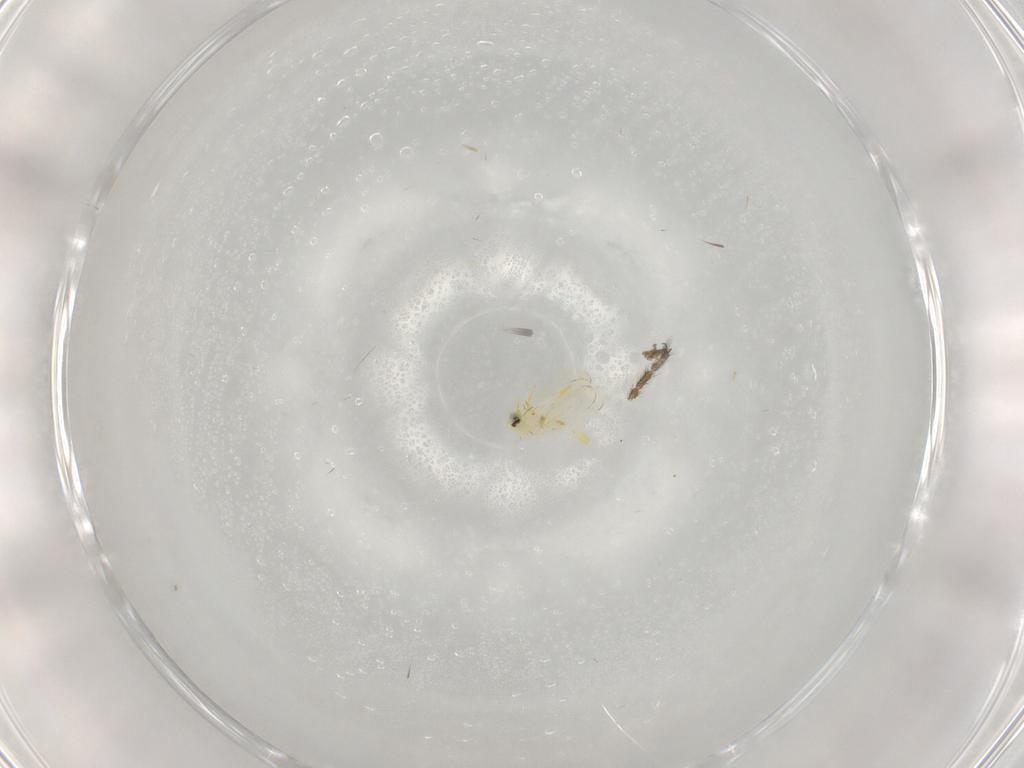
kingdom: Animalia
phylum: Arthropoda
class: Insecta
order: Hemiptera
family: Aleyrodidae
